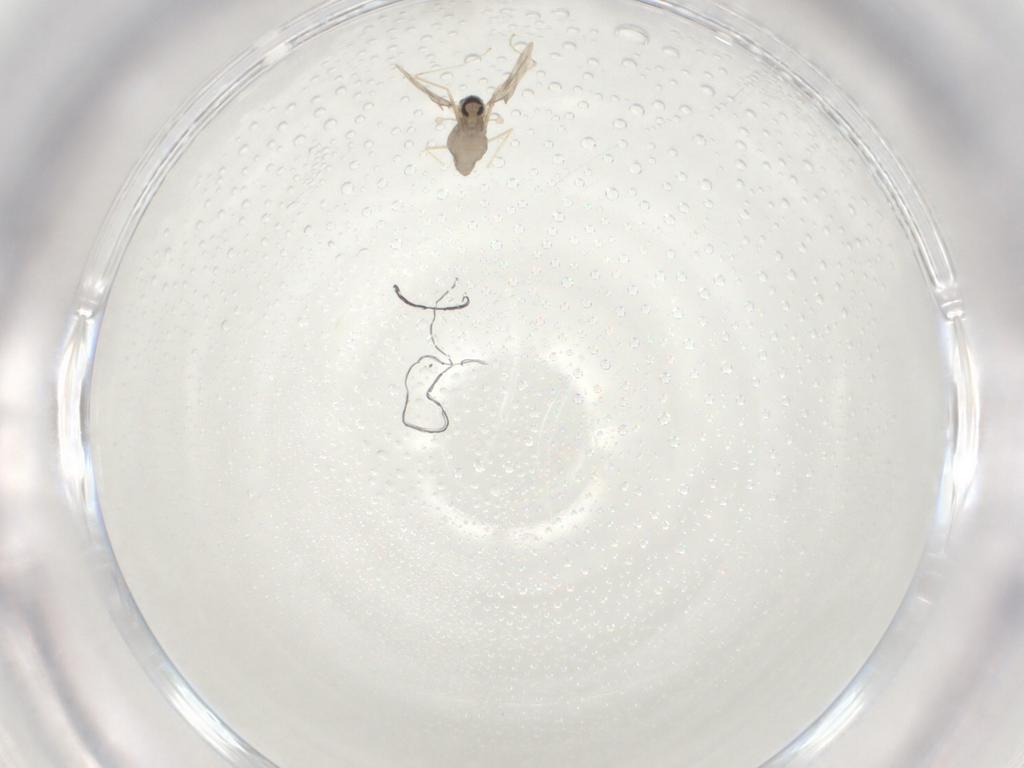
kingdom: Animalia
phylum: Arthropoda
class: Insecta
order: Diptera
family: Cecidomyiidae
